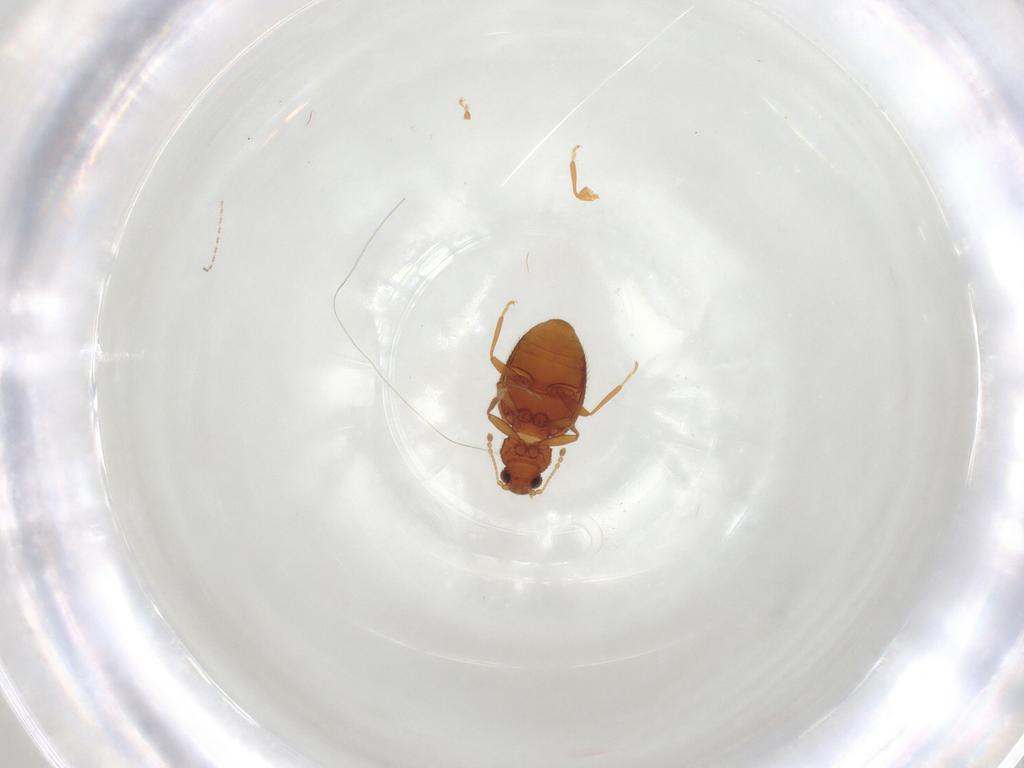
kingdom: Animalia
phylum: Arthropoda
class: Insecta
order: Coleoptera
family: Latridiidae
